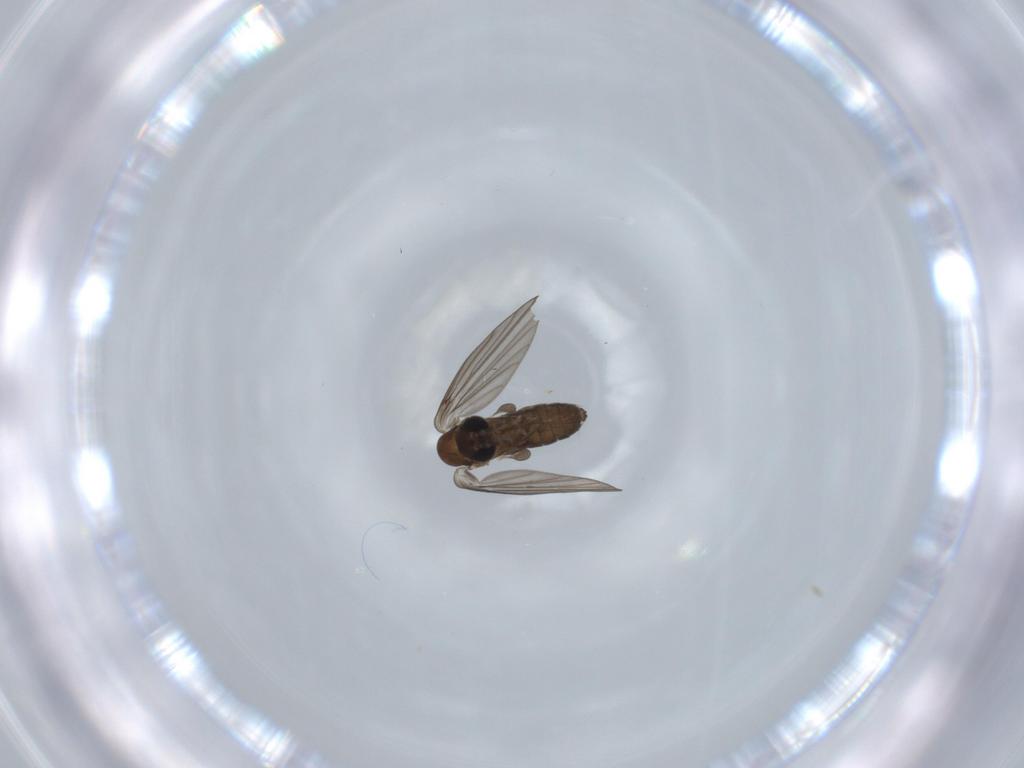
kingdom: Animalia
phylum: Arthropoda
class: Insecta
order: Diptera
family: Psychodidae
